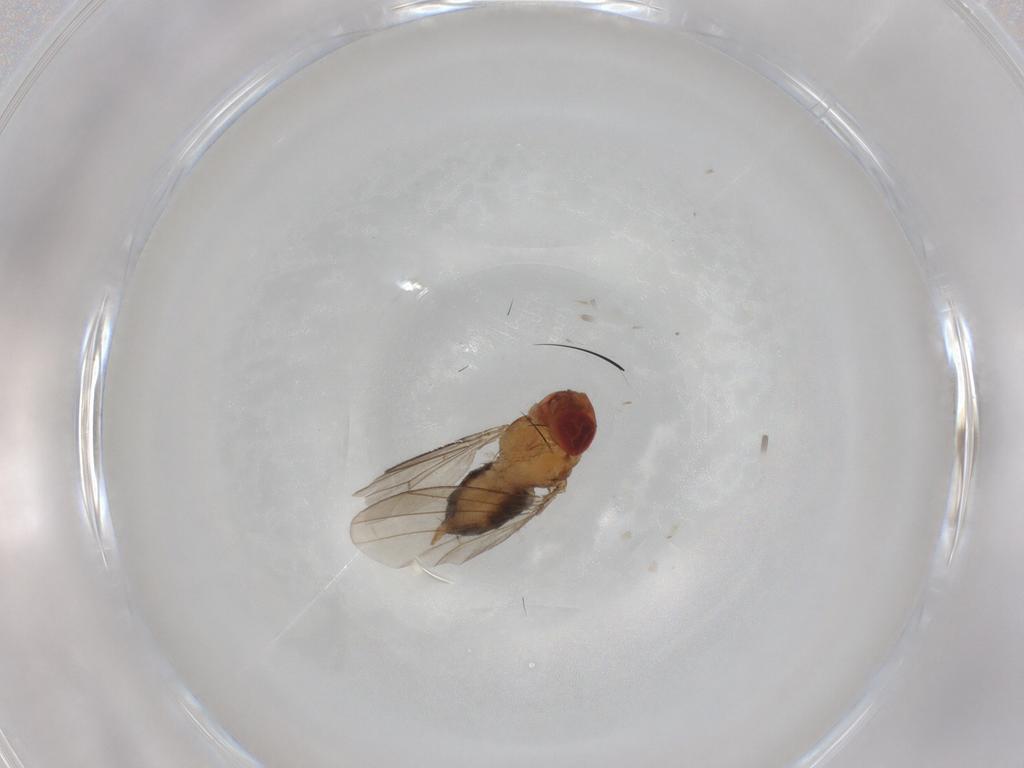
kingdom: Animalia
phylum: Arthropoda
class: Insecta
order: Diptera
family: Drosophilidae
